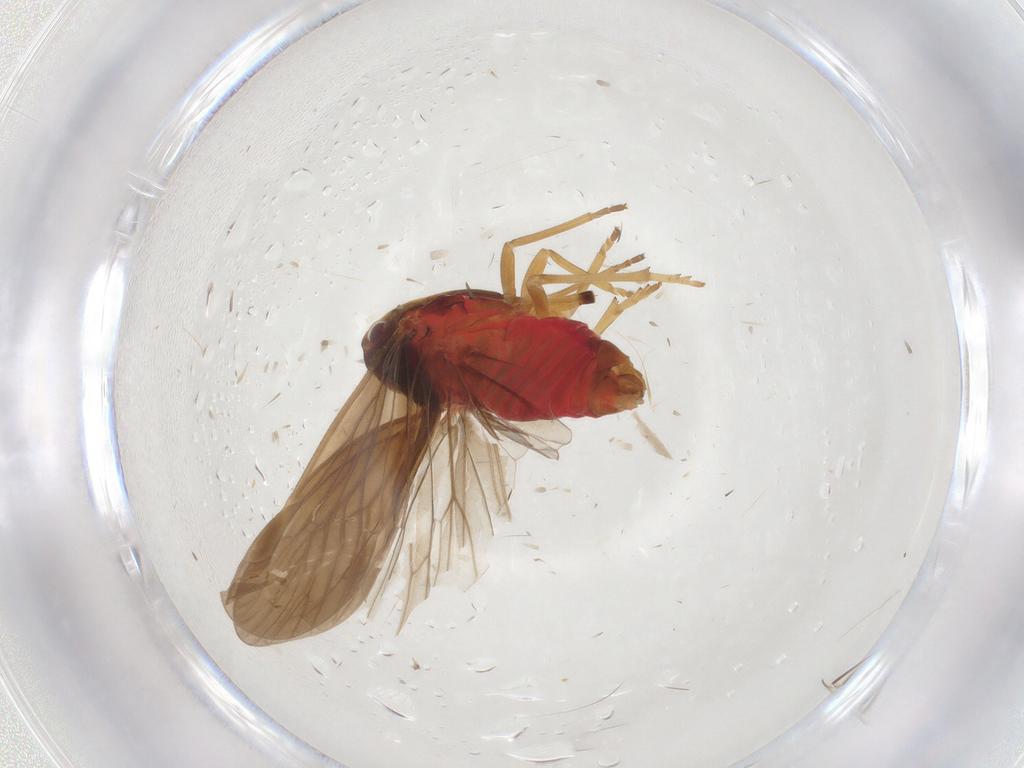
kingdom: Animalia
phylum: Arthropoda
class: Insecta
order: Hemiptera
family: Derbidae
